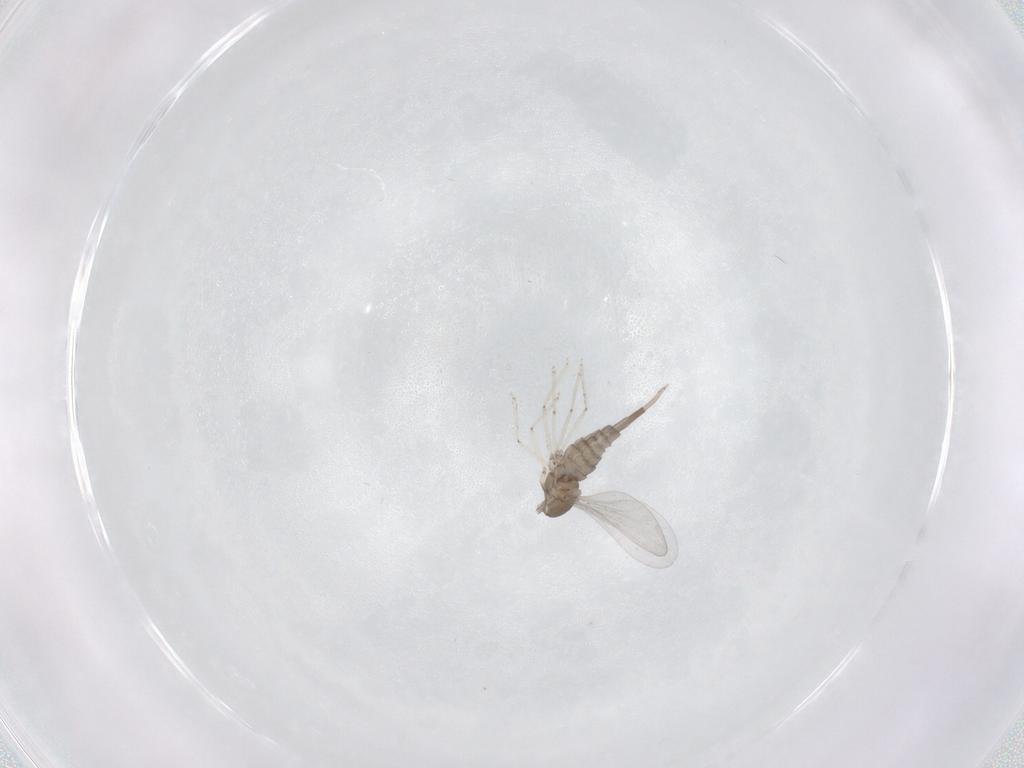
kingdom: Animalia
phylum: Arthropoda
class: Insecta
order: Diptera
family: Cecidomyiidae
